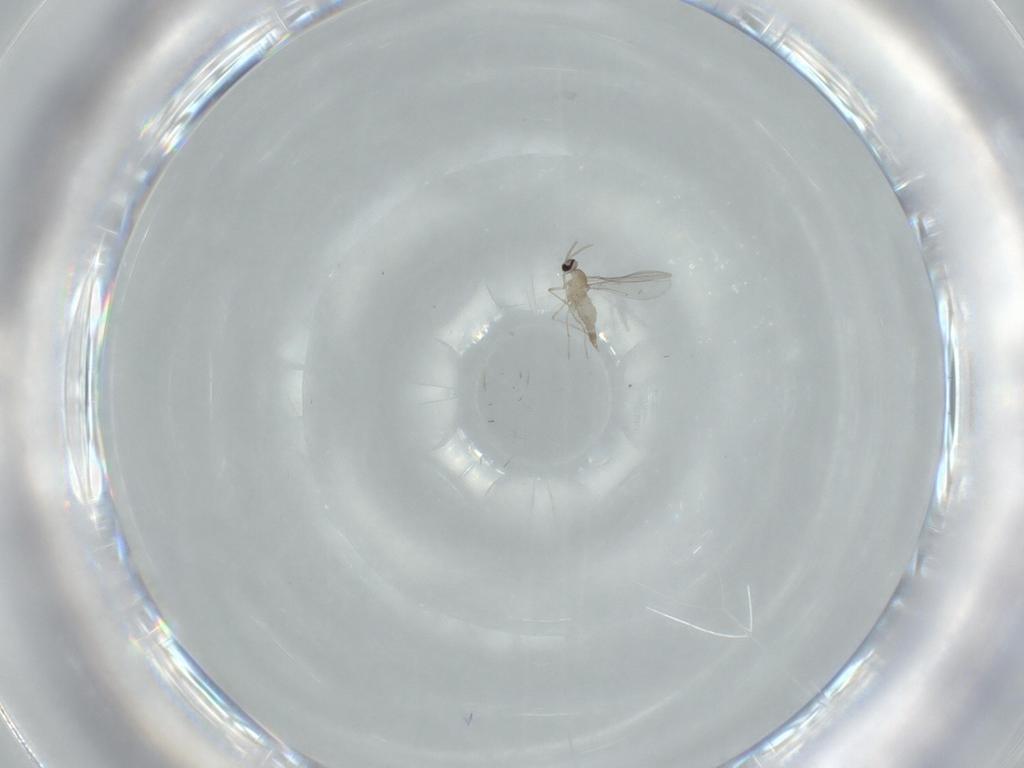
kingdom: Animalia
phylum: Arthropoda
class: Insecta
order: Diptera
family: Cecidomyiidae
